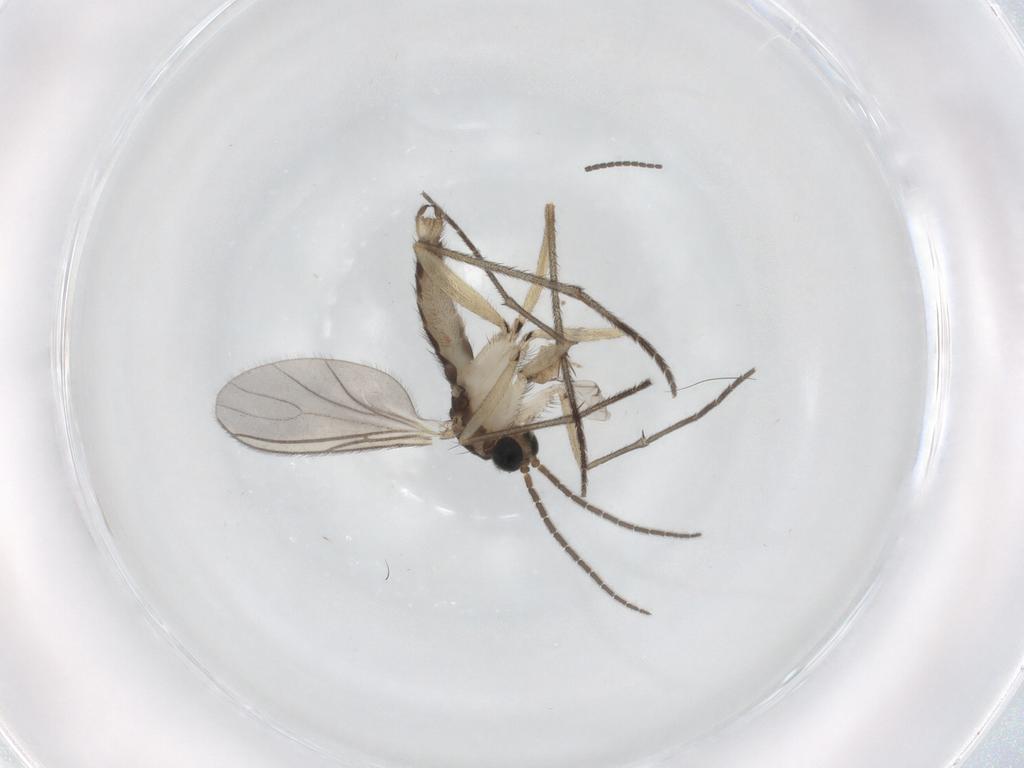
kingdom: Animalia
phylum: Arthropoda
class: Insecta
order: Diptera
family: Sciaridae
